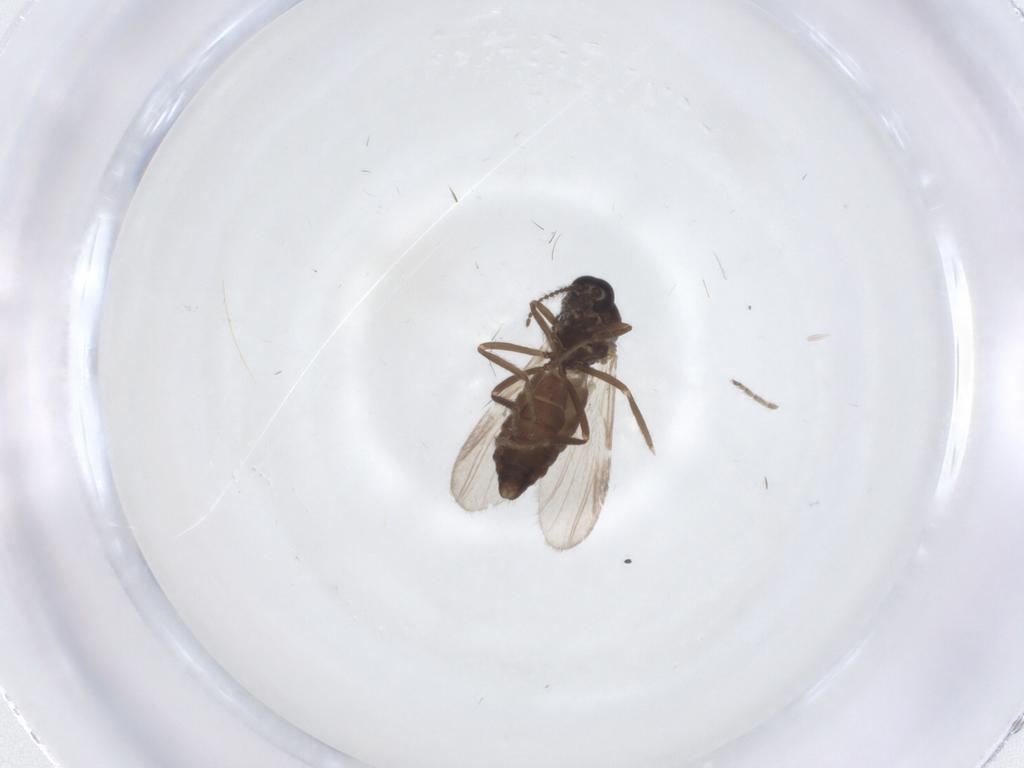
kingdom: Animalia
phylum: Arthropoda
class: Insecta
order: Diptera
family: Ceratopogonidae
